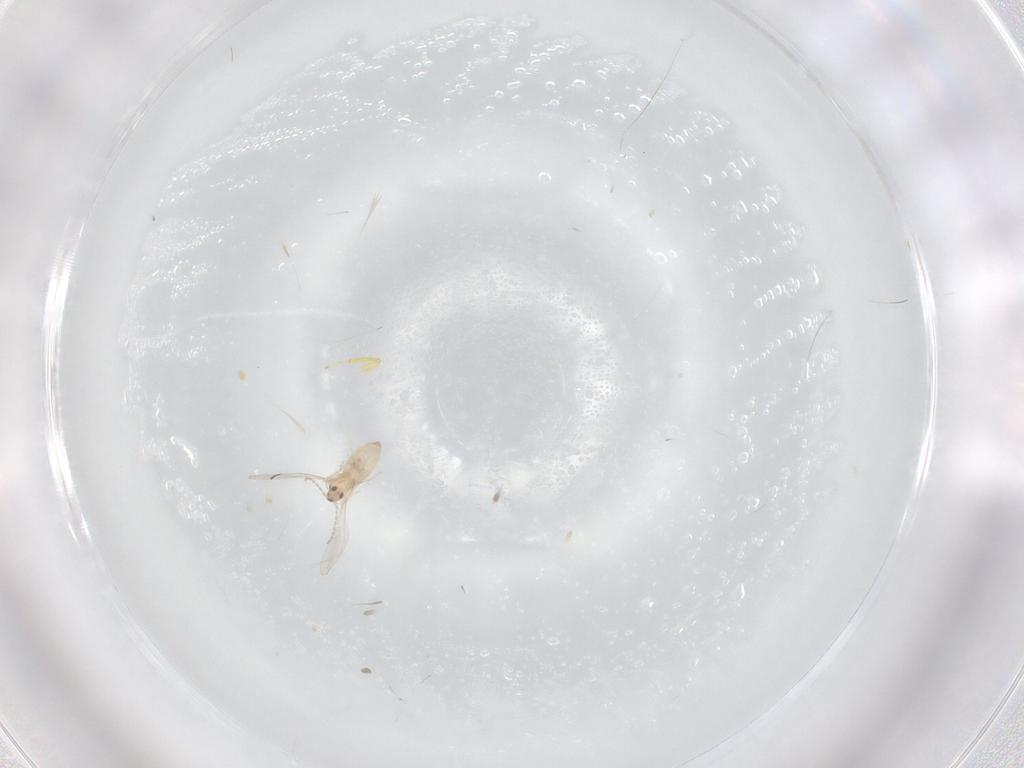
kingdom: Animalia
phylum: Arthropoda
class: Insecta
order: Diptera
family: Cecidomyiidae
